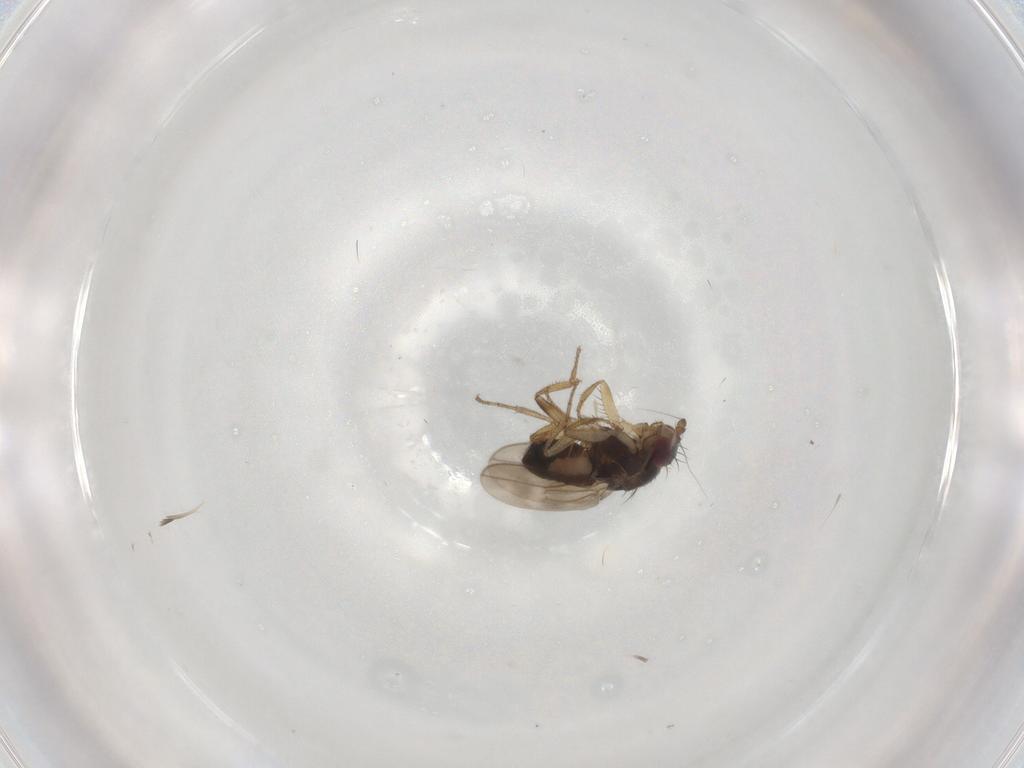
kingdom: Animalia
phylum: Arthropoda
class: Insecta
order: Diptera
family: Sphaeroceridae
